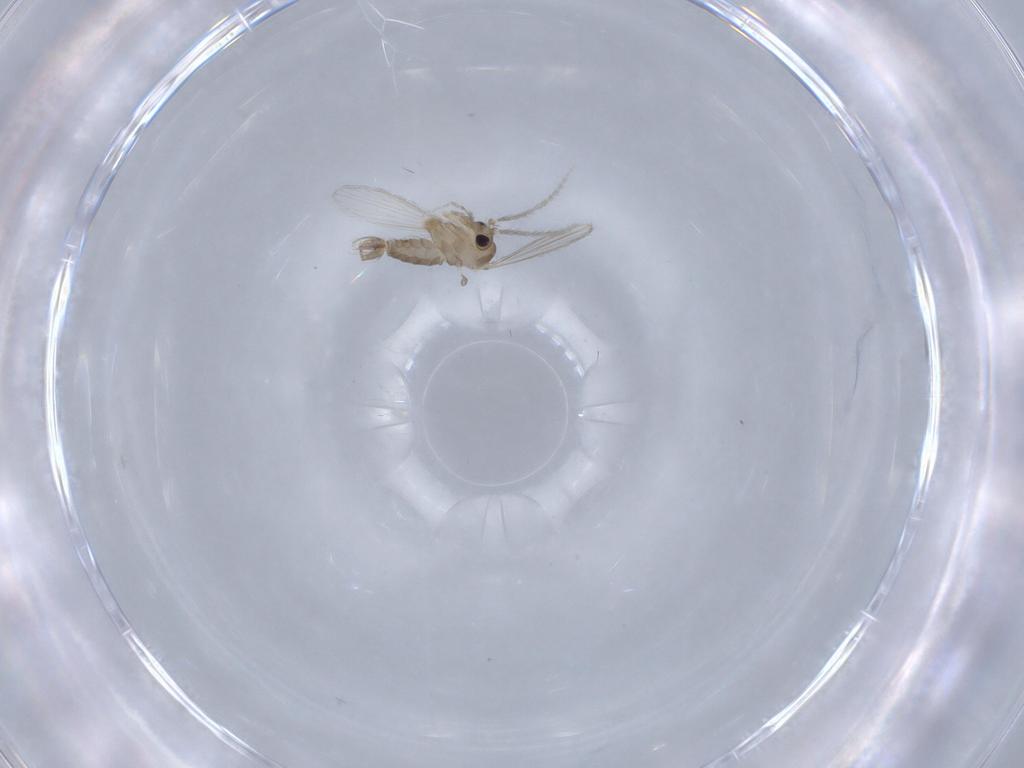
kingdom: Animalia
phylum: Arthropoda
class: Insecta
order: Diptera
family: Psychodidae
